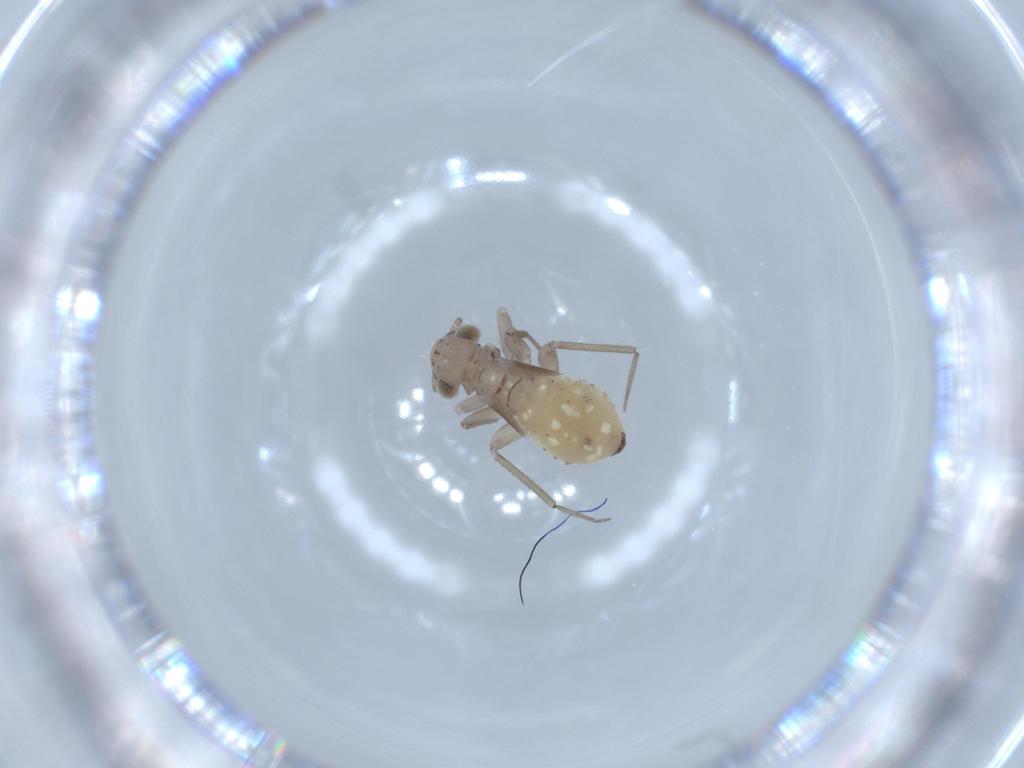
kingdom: Animalia
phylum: Arthropoda
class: Insecta
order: Psocodea
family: Lepidopsocidae
